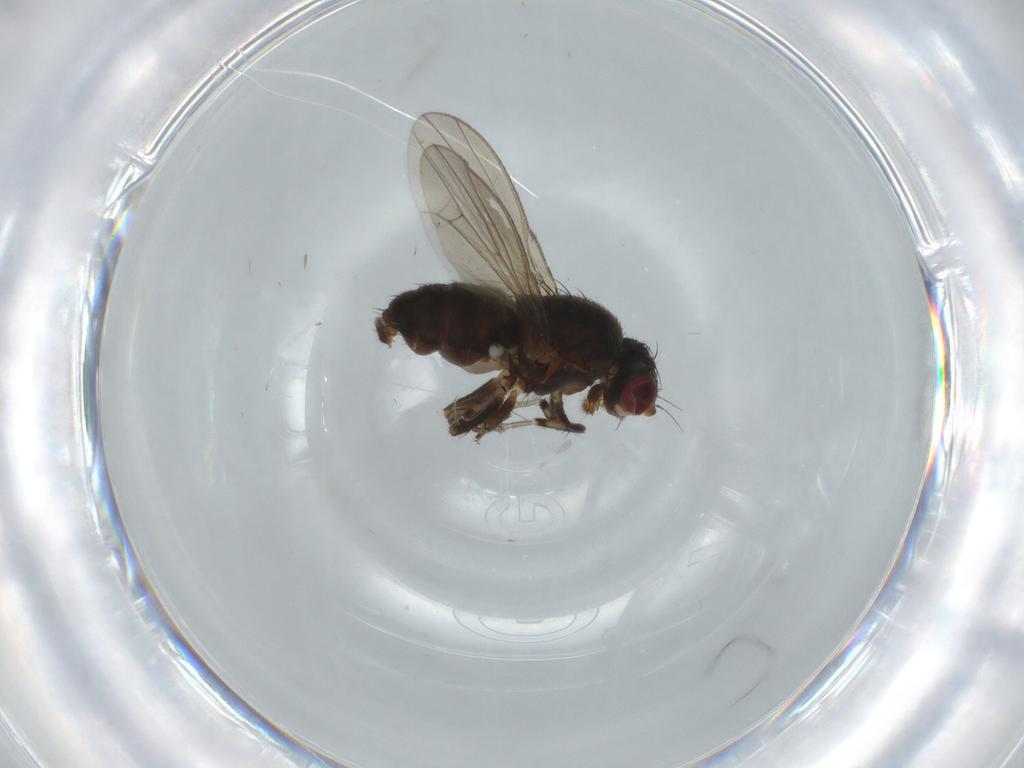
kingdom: Animalia
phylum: Arthropoda
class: Insecta
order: Diptera
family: Heleomyzidae
